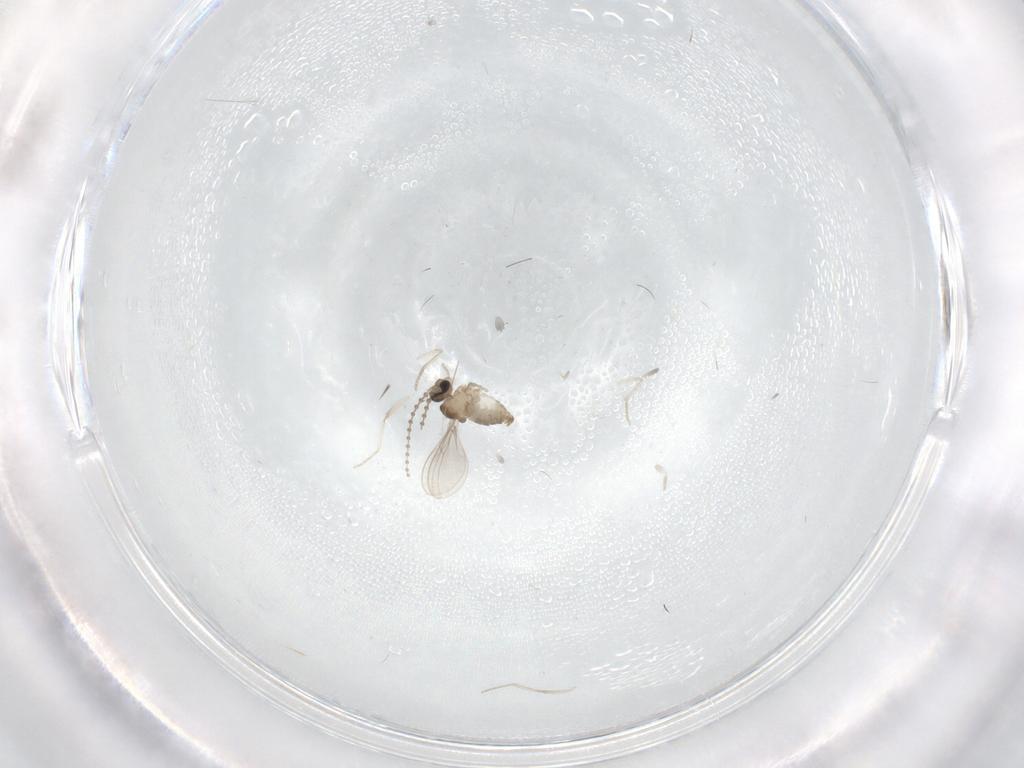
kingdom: Animalia
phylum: Arthropoda
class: Insecta
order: Diptera
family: Cecidomyiidae
